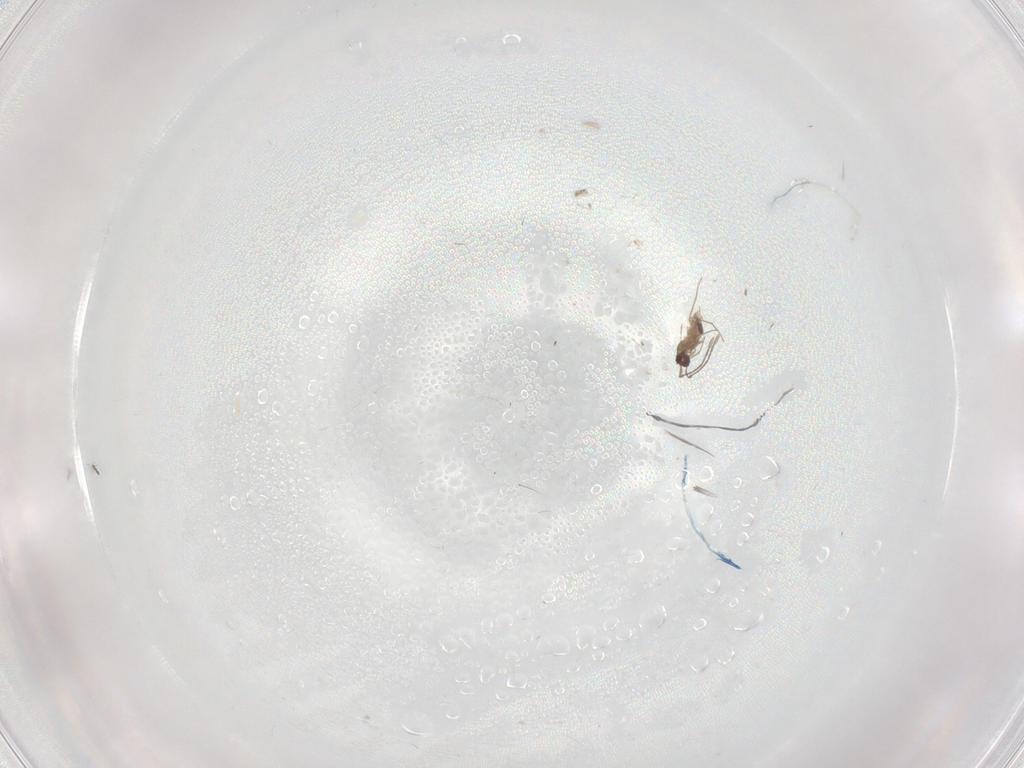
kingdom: Animalia
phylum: Arthropoda
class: Insecta
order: Hymenoptera
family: Mymaridae
